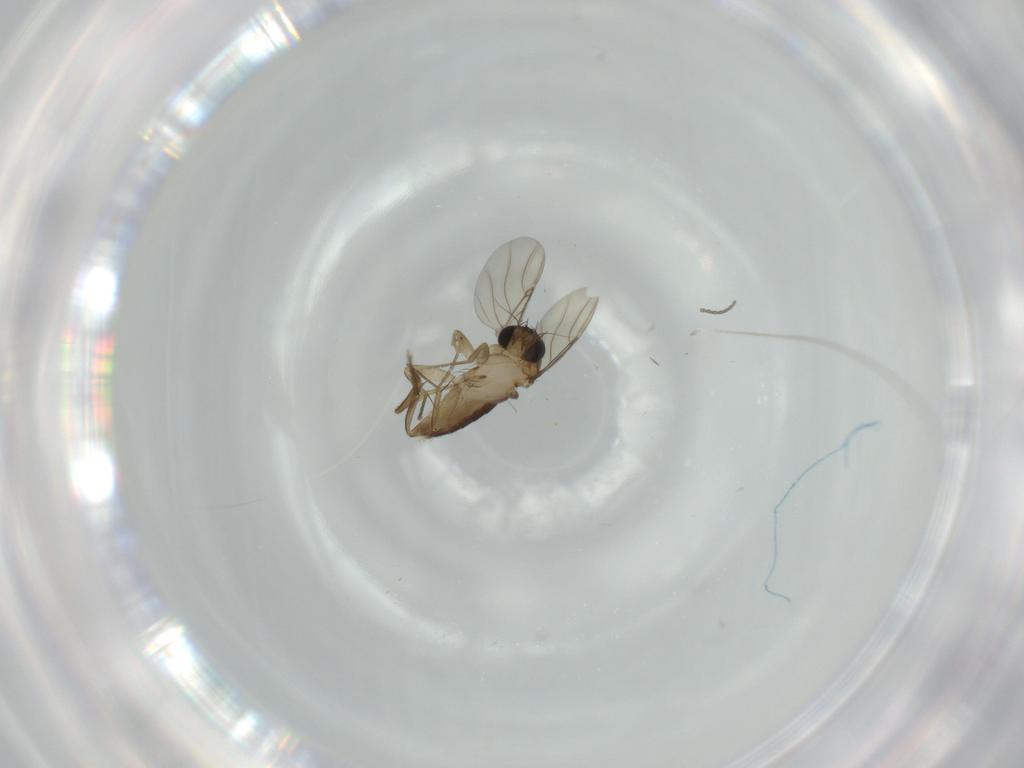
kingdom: Animalia
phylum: Arthropoda
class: Insecta
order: Diptera
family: Phoridae
